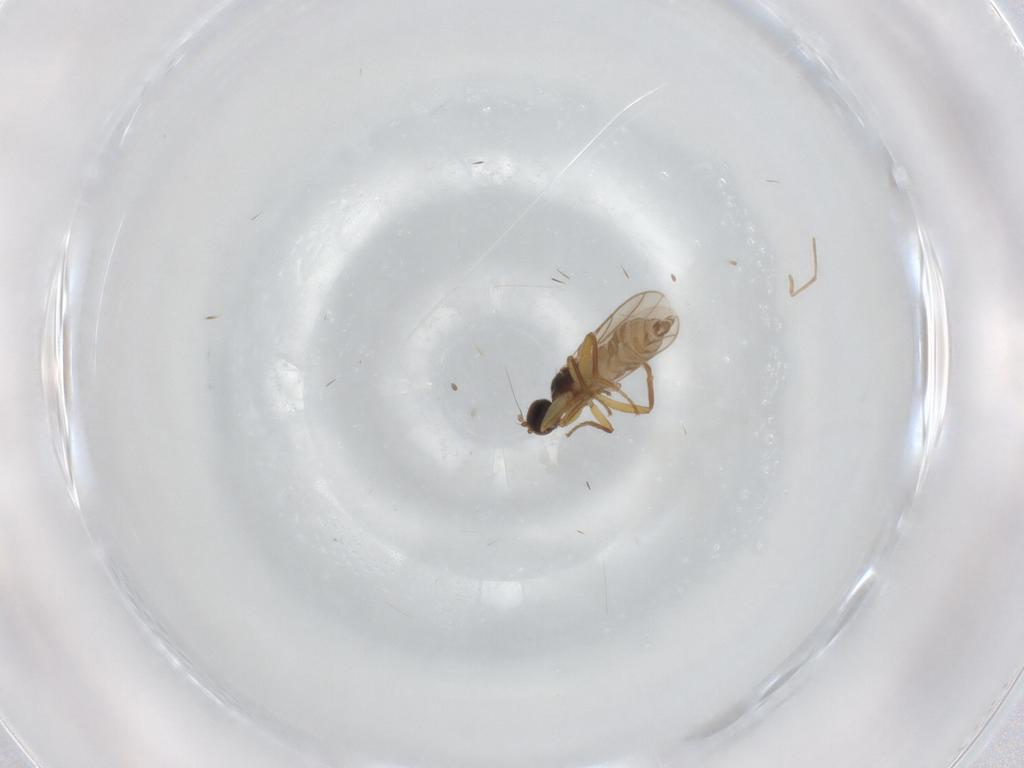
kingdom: Animalia
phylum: Arthropoda
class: Insecta
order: Diptera
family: Hybotidae
